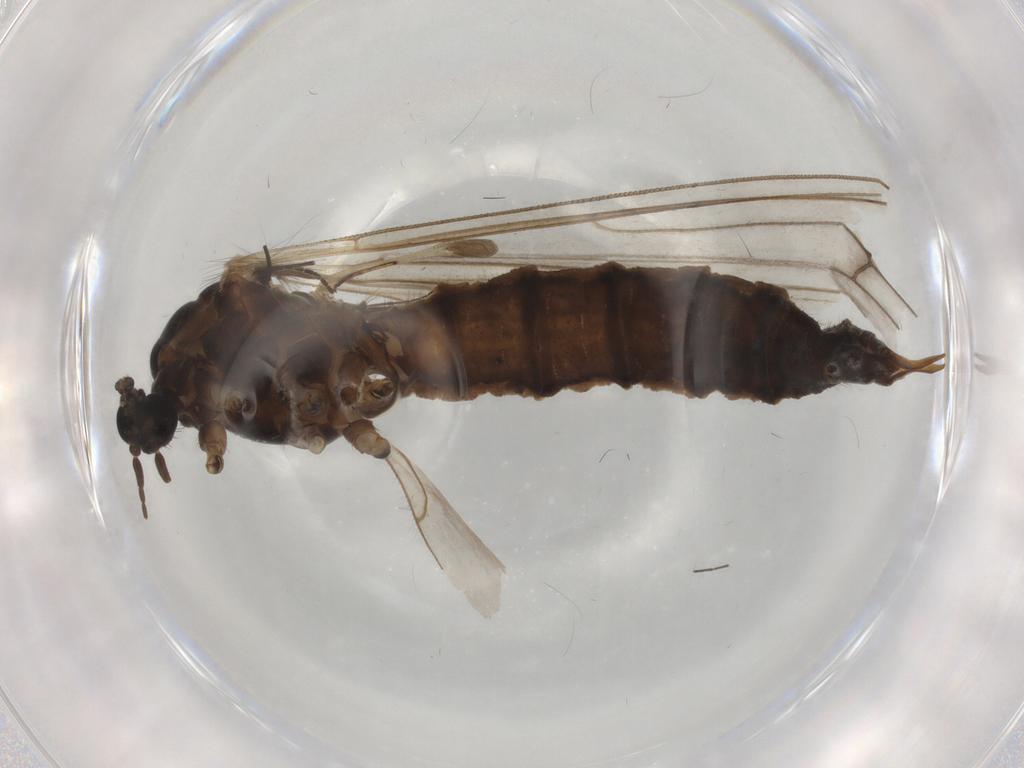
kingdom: Animalia
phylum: Arthropoda
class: Insecta
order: Diptera
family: Trichoceridae
